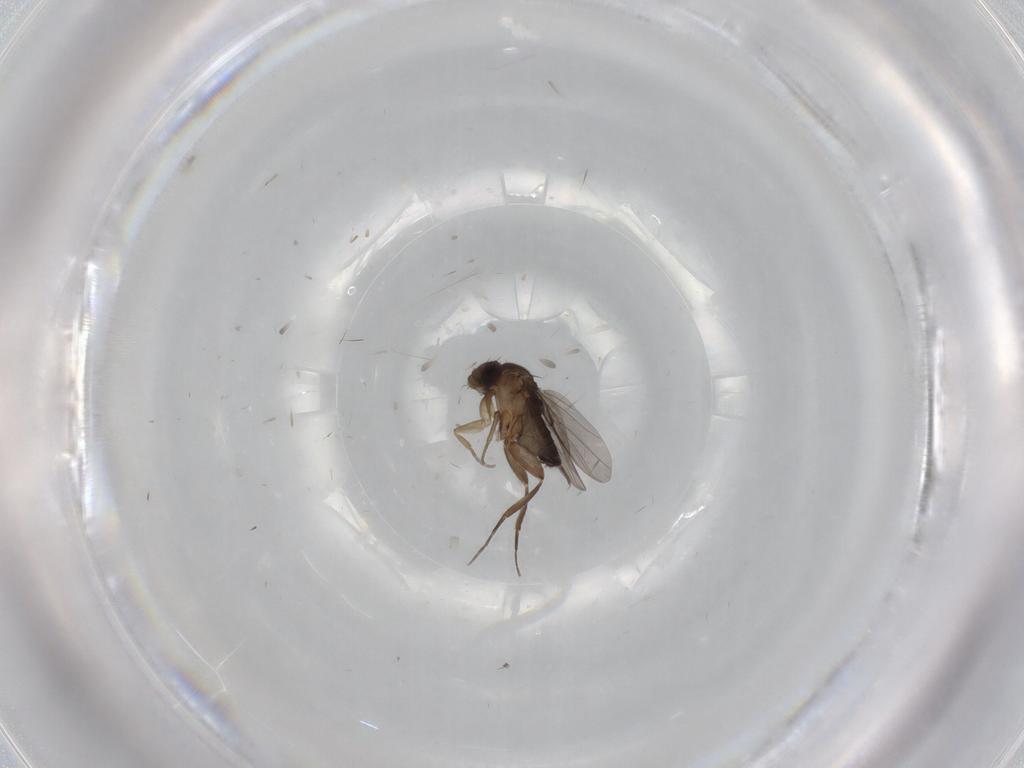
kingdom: Animalia
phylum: Arthropoda
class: Insecta
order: Diptera
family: Phoridae
